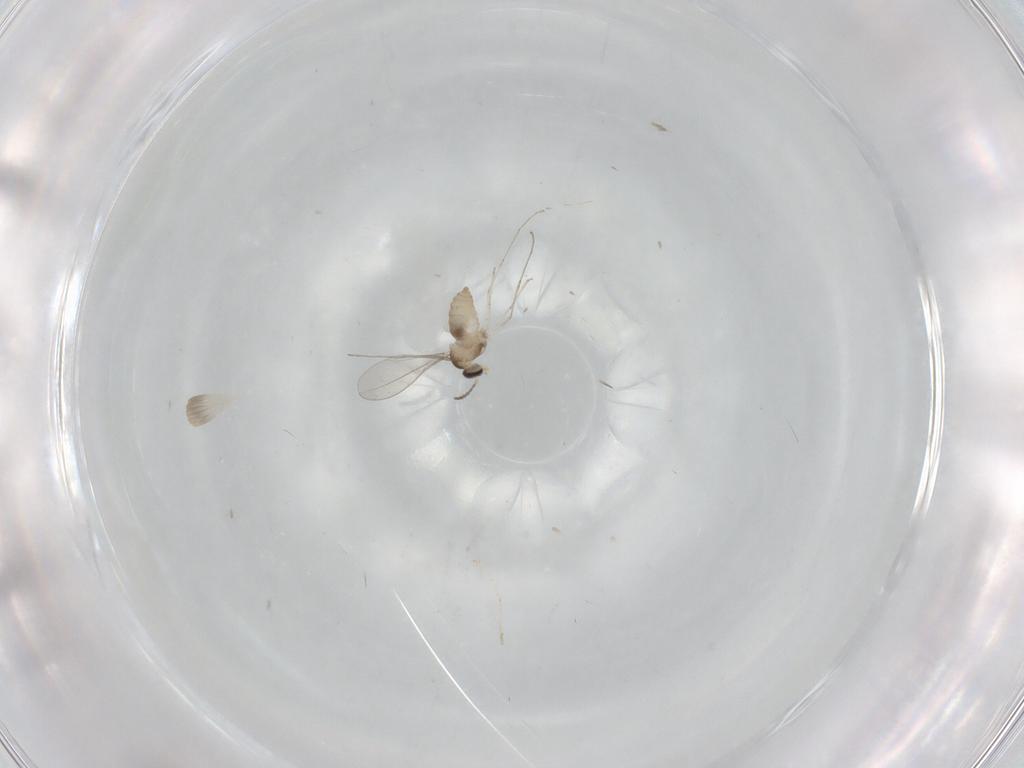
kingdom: Animalia
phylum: Arthropoda
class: Insecta
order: Diptera
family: Cecidomyiidae
